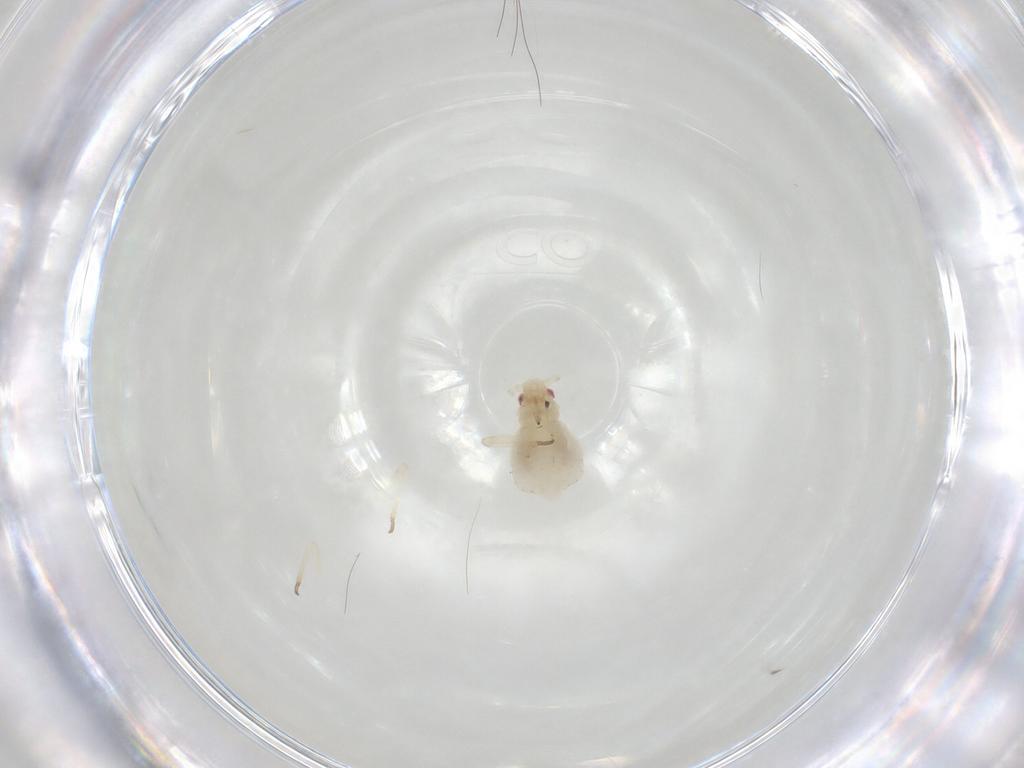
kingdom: Animalia
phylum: Arthropoda
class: Insecta
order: Hemiptera
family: Aphididae
